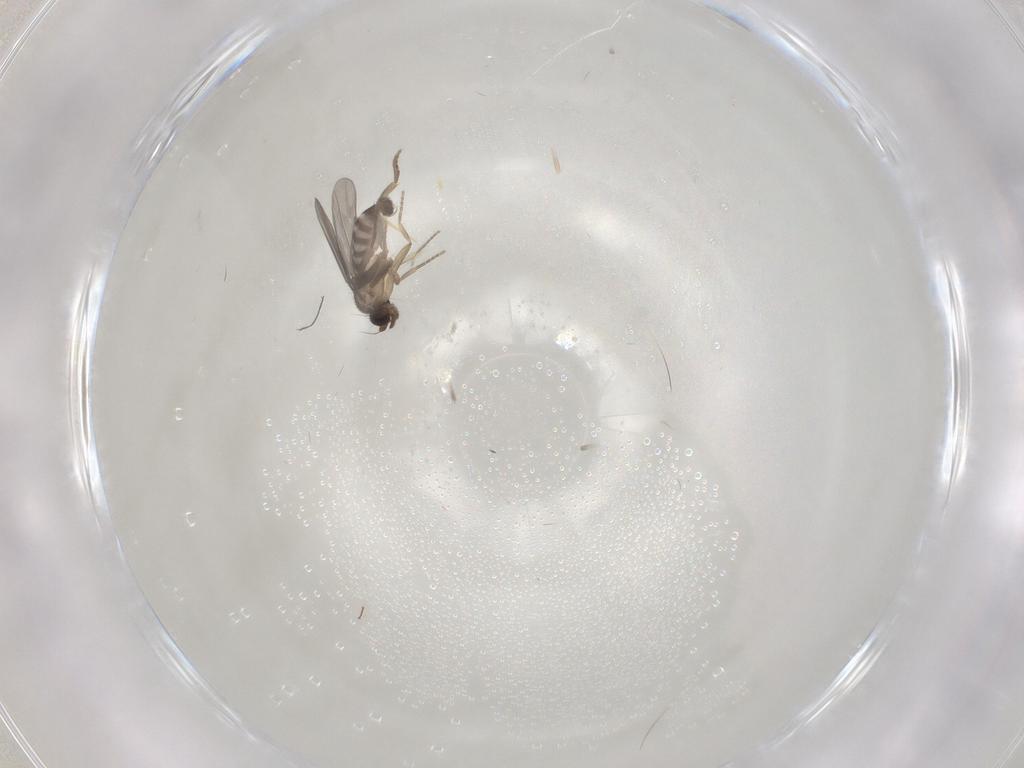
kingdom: Animalia
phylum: Arthropoda
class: Insecta
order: Diptera
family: Phoridae
